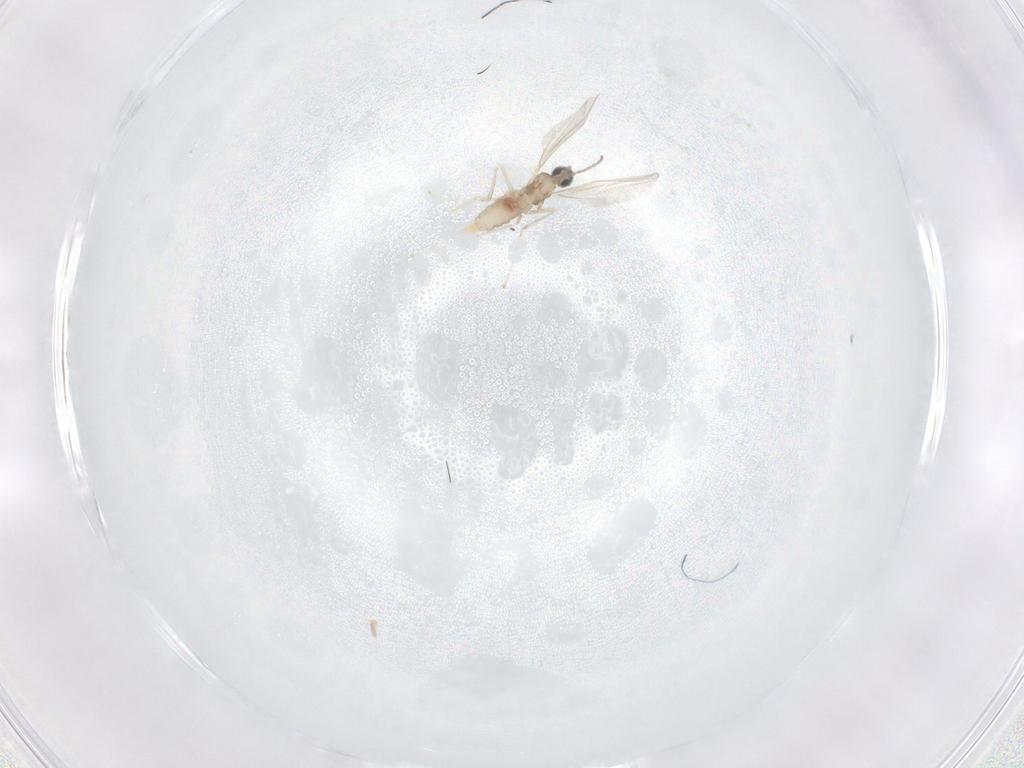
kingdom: Animalia
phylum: Arthropoda
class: Insecta
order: Diptera
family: Cecidomyiidae
